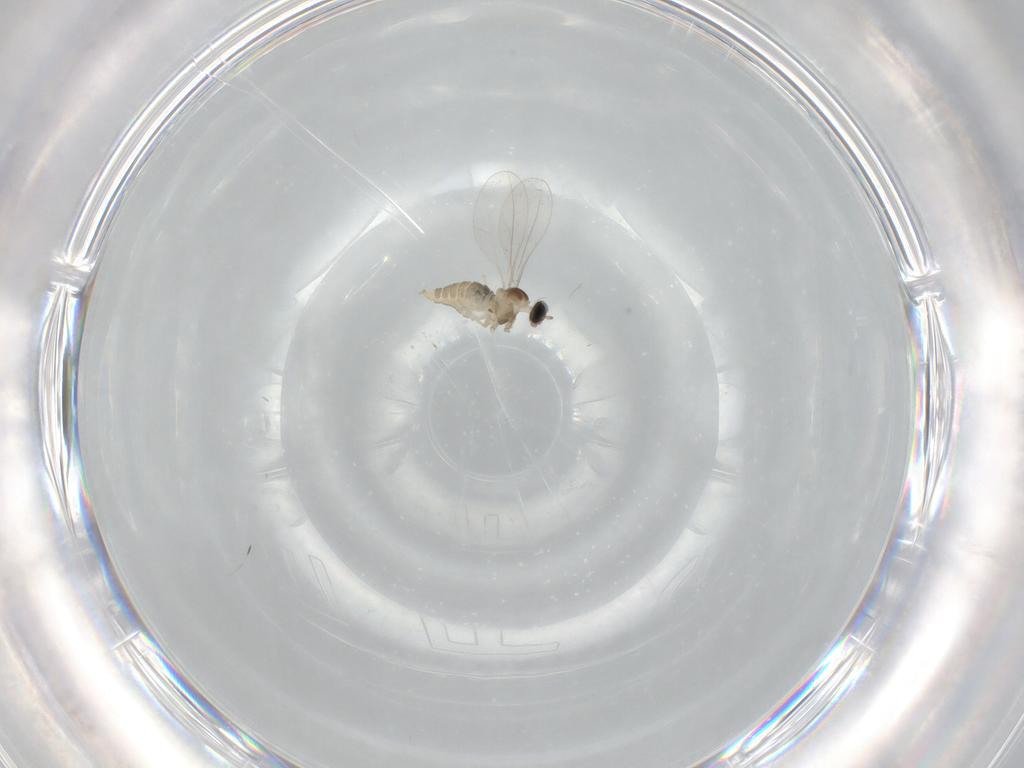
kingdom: Animalia
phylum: Arthropoda
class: Insecta
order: Diptera
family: Cecidomyiidae
